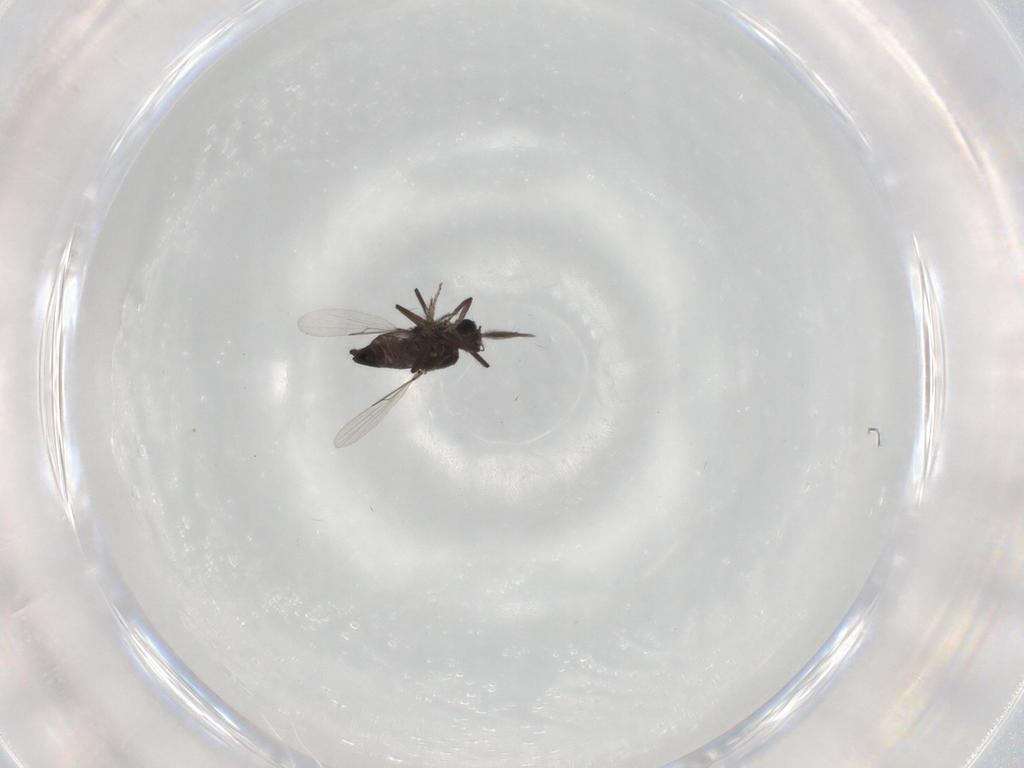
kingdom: Animalia
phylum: Arthropoda
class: Insecta
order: Diptera
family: Ceratopogonidae
